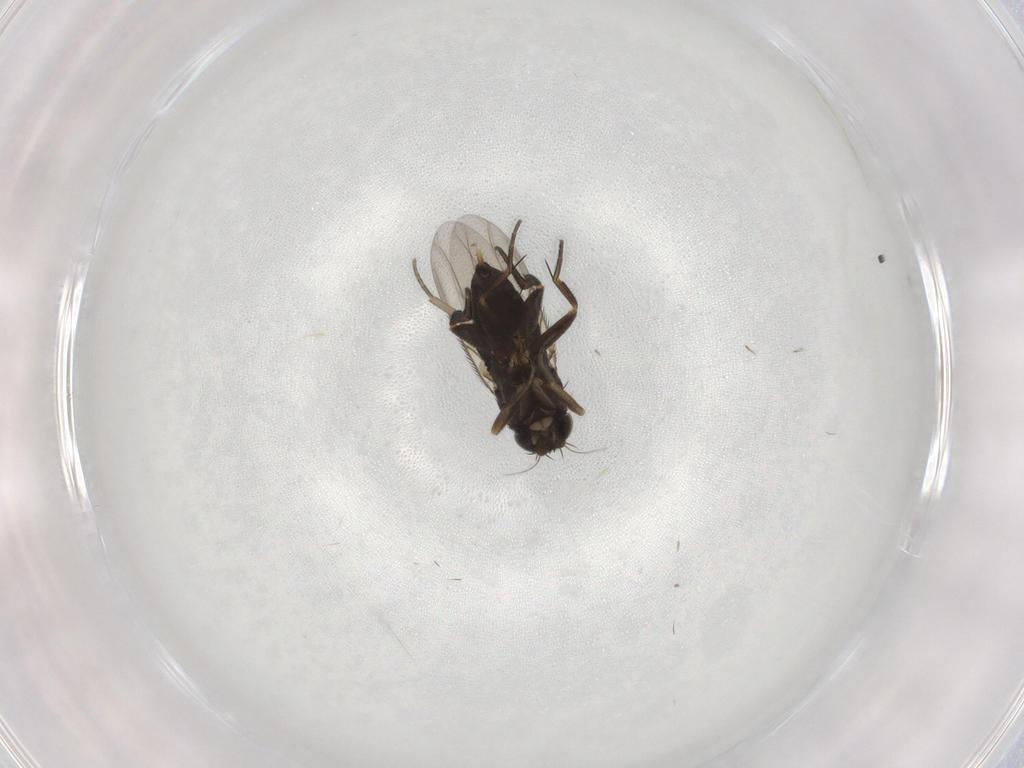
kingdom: Animalia
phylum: Arthropoda
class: Insecta
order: Diptera
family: Phoridae
